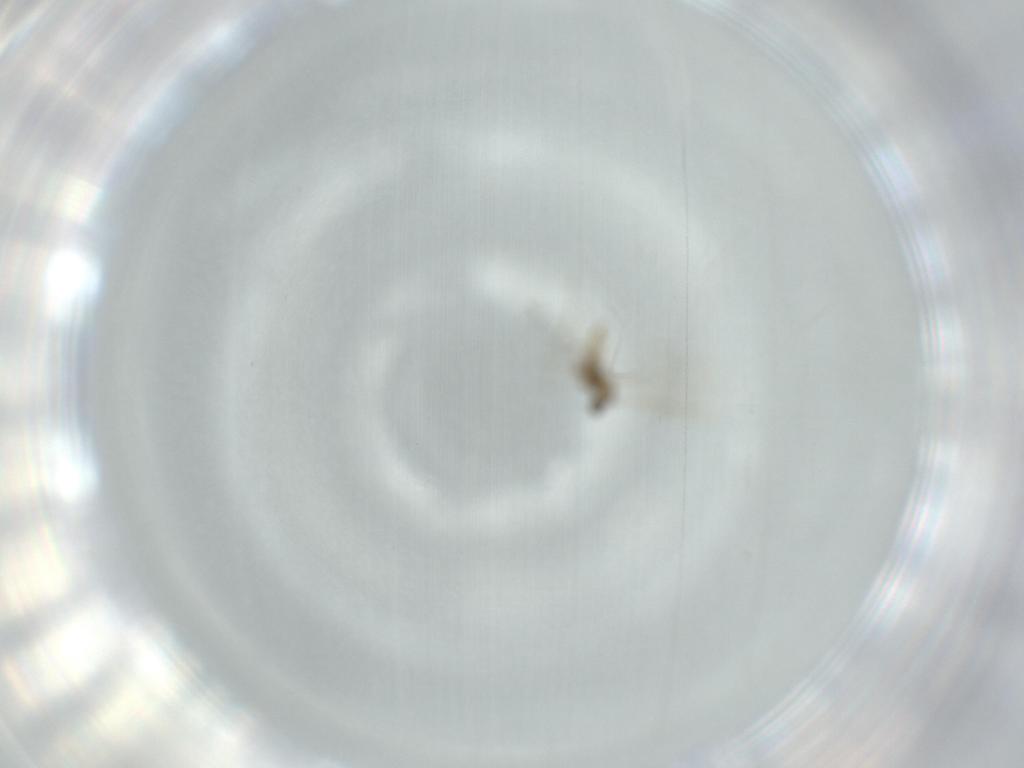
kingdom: Animalia
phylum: Arthropoda
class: Insecta
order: Diptera
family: Cecidomyiidae
